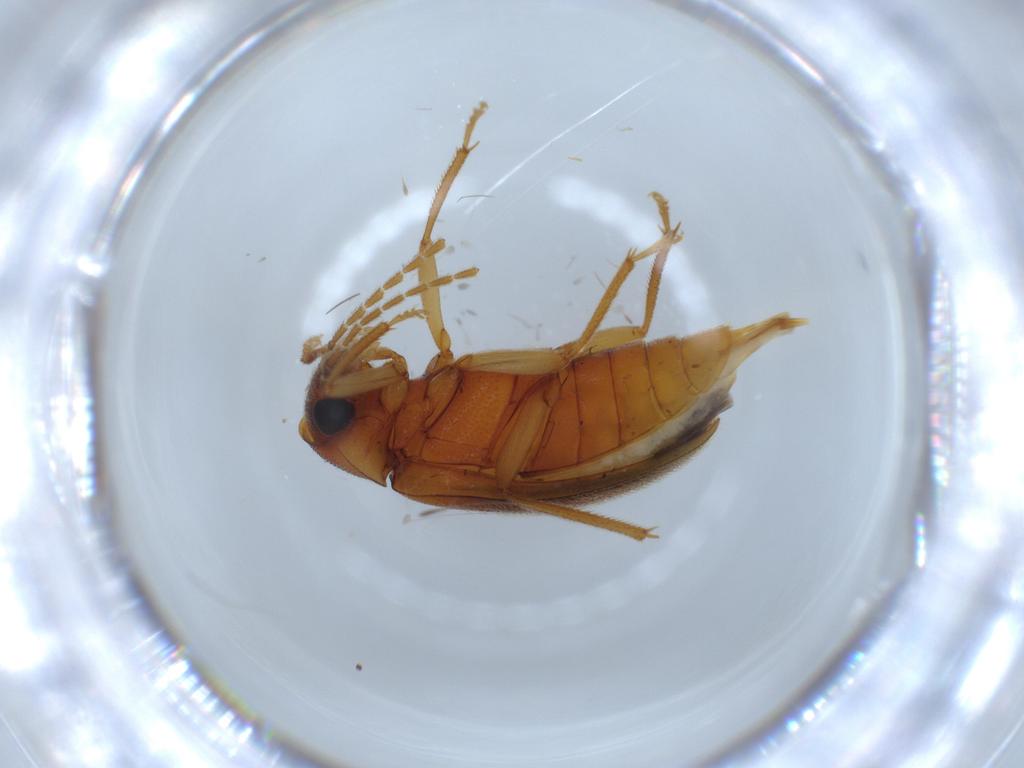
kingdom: Animalia
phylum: Arthropoda
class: Insecta
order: Coleoptera
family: Ptilodactylidae
